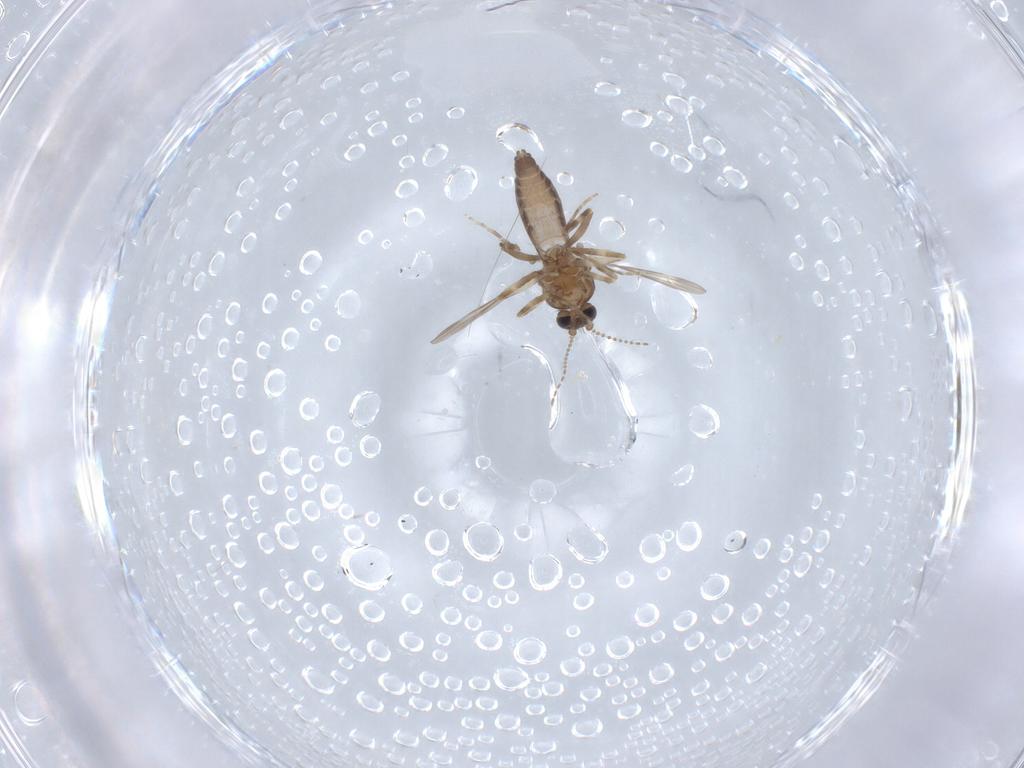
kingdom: Animalia
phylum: Arthropoda
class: Insecta
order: Diptera
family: Ceratopogonidae
